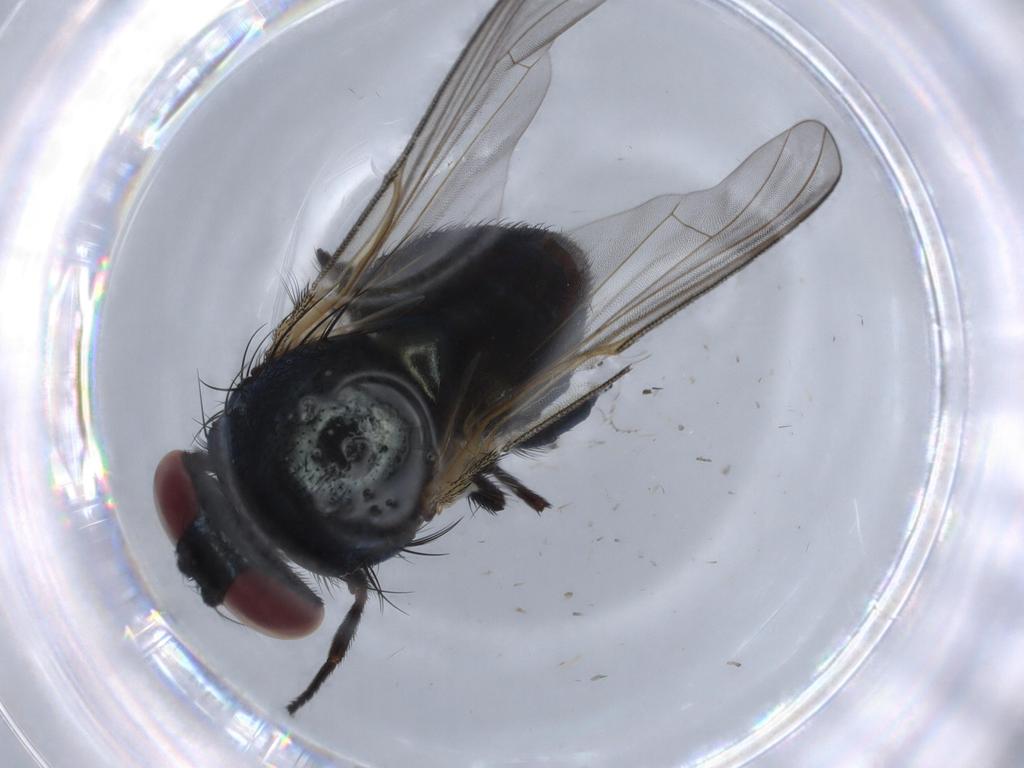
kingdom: Animalia
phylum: Arthropoda
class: Insecta
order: Diptera
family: Lonchaeidae
